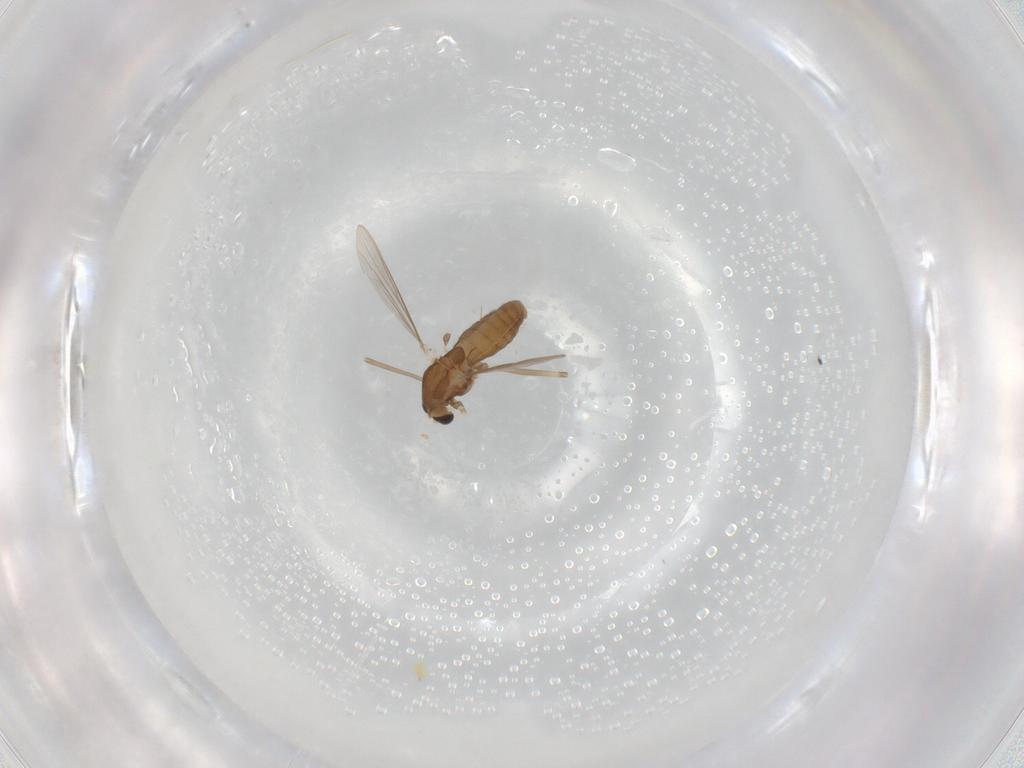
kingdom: Animalia
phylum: Arthropoda
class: Insecta
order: Diptera
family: Chironomidae
